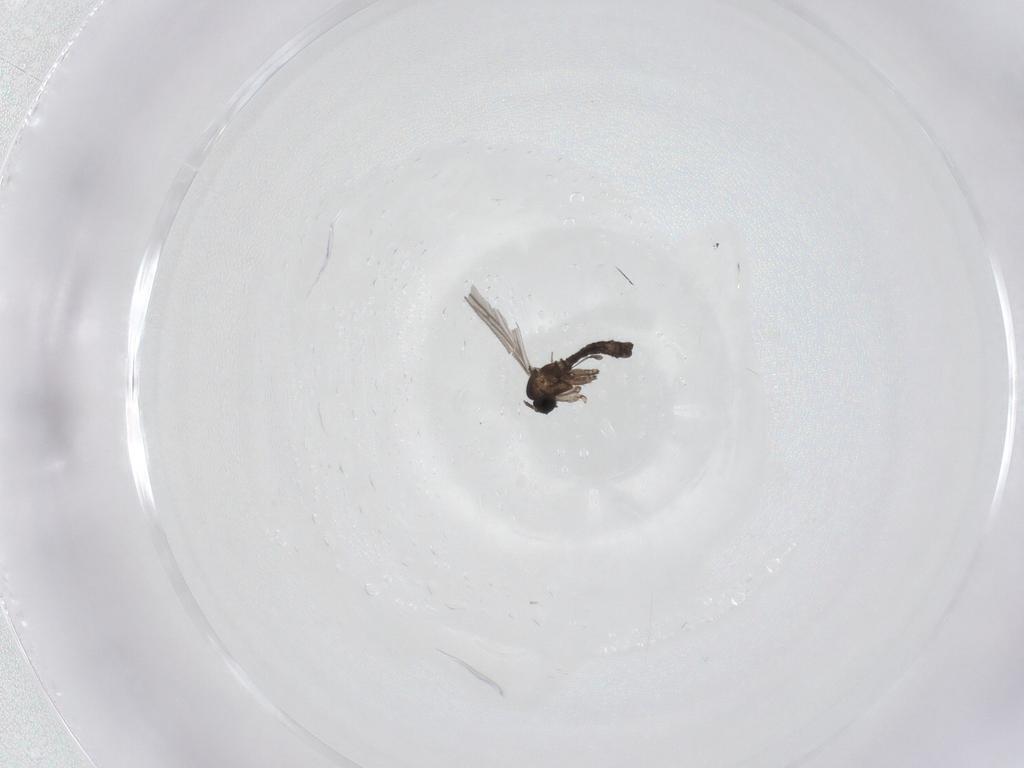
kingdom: Animalia
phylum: Arthropoda
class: Insecta
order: Diptera
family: Sciaridae
